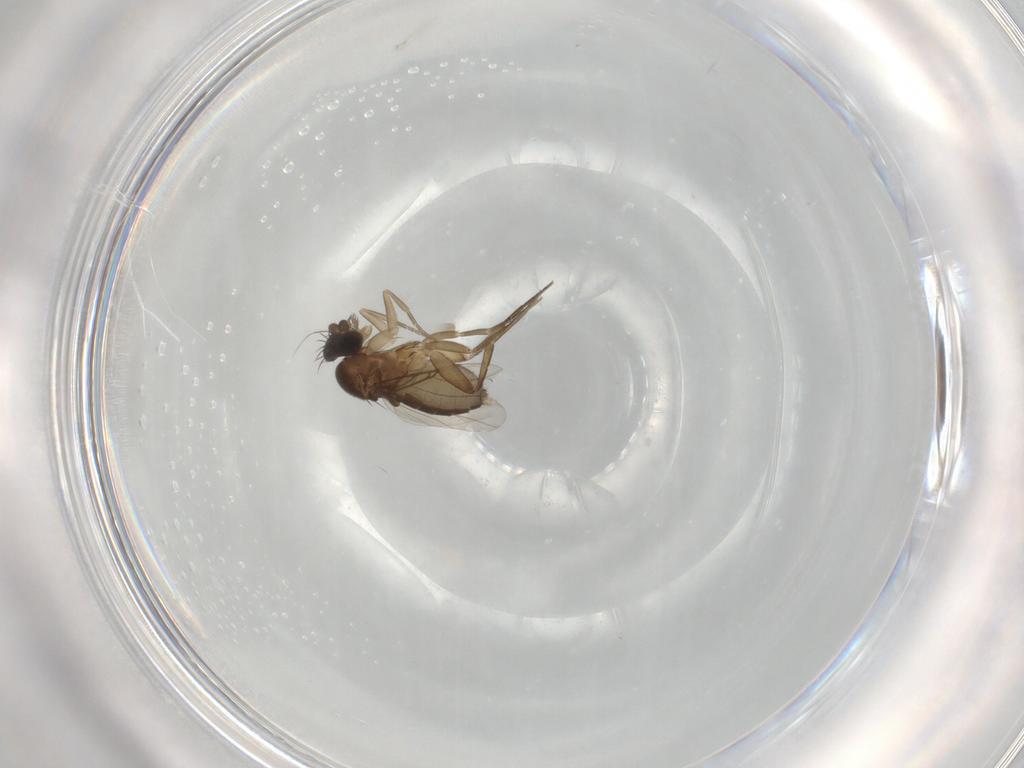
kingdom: Animalia
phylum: Arthropoda
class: Insecta
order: Diptera
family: Phoridae
